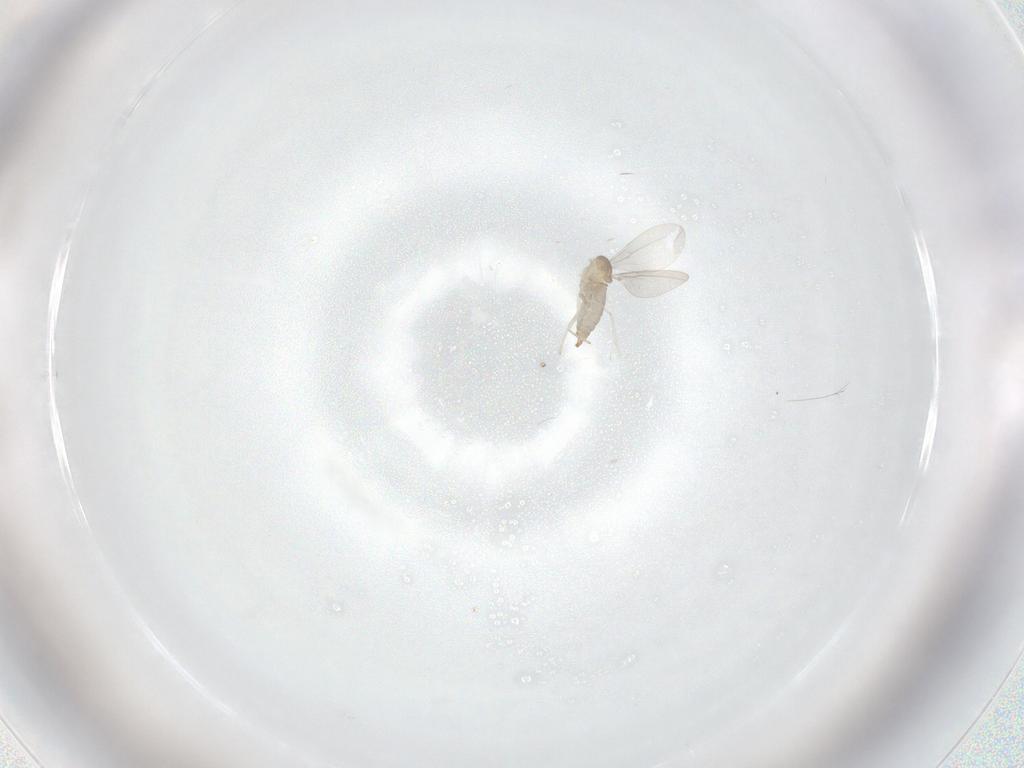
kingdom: Animalia
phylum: Arthropoda
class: Insecta
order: Diptera
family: Cecidomyiidae
